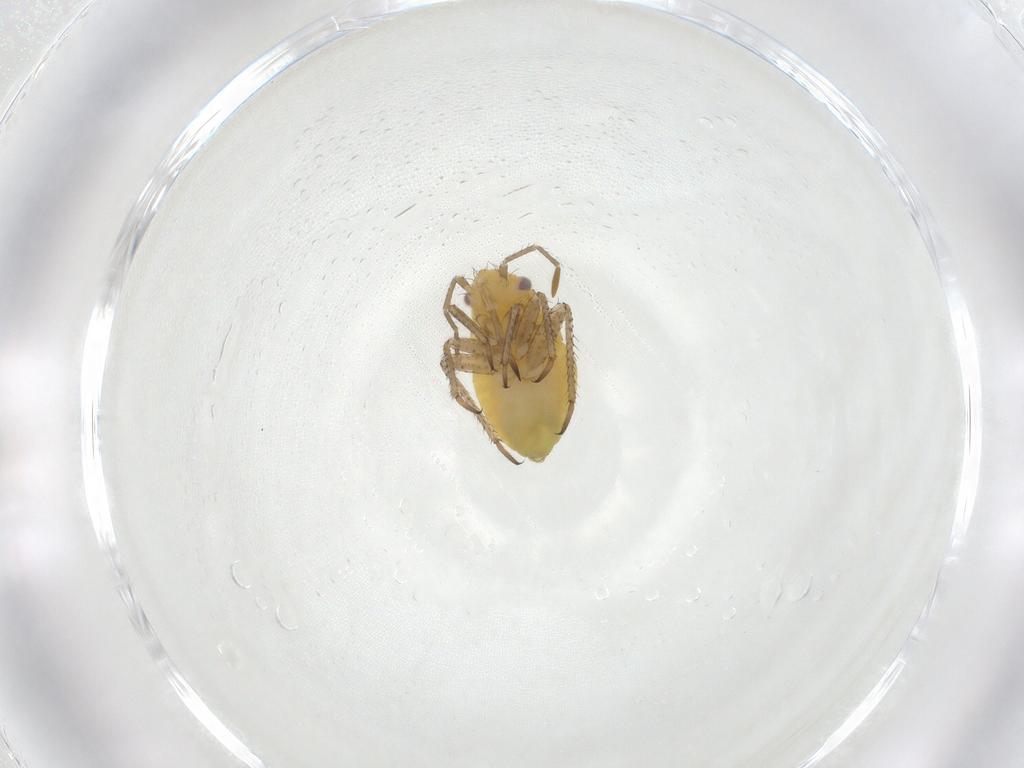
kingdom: Animalia
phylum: Arthropoda
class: Insecta
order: Hemiptera
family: Miridae
